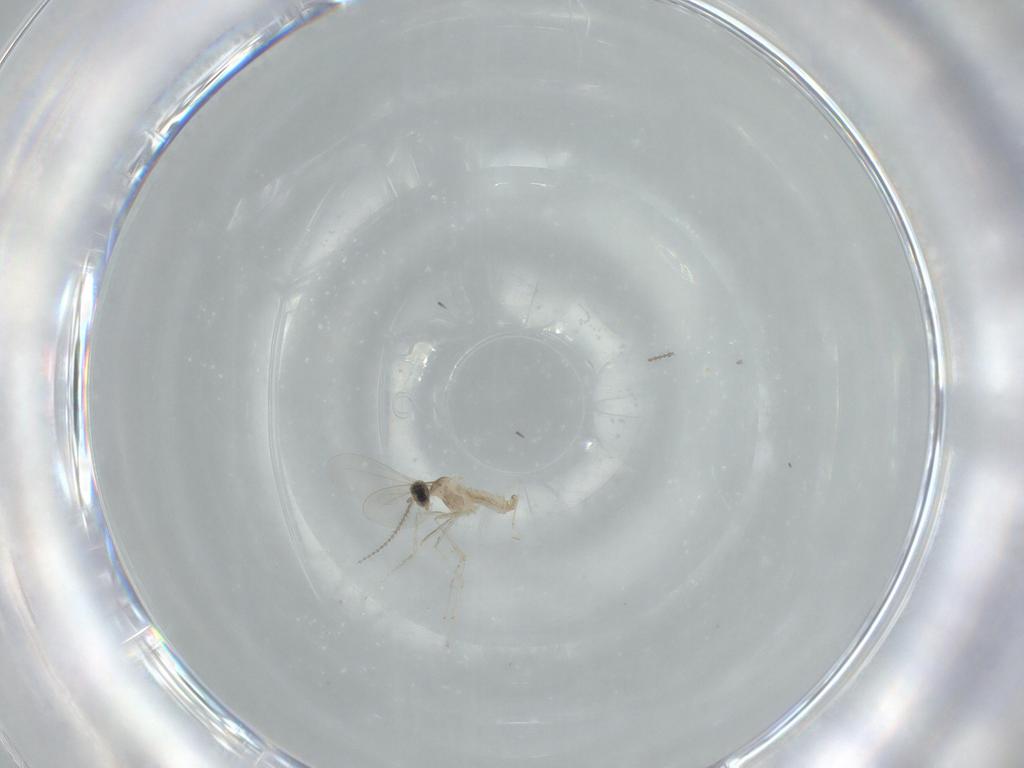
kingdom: Animalia
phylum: Arthropoda
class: Insecta
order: Diptera
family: Cecidomyiidae
